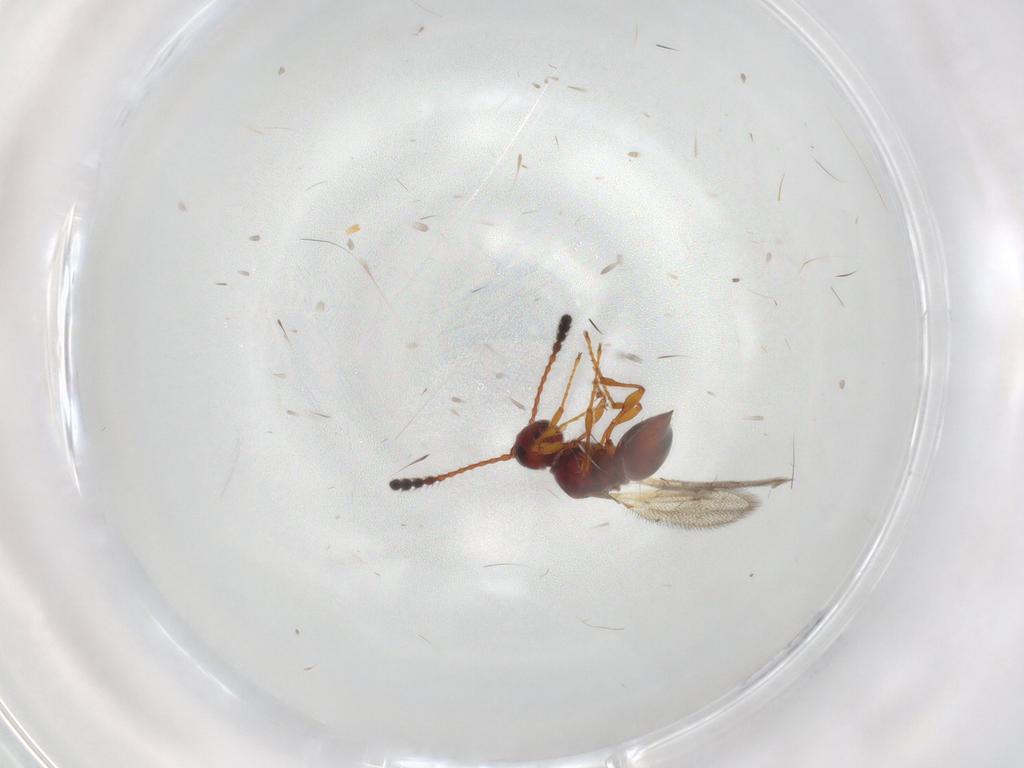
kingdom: Animalia
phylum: Arthropoda
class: Insecta
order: Hymenoptera
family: Diapriidae
